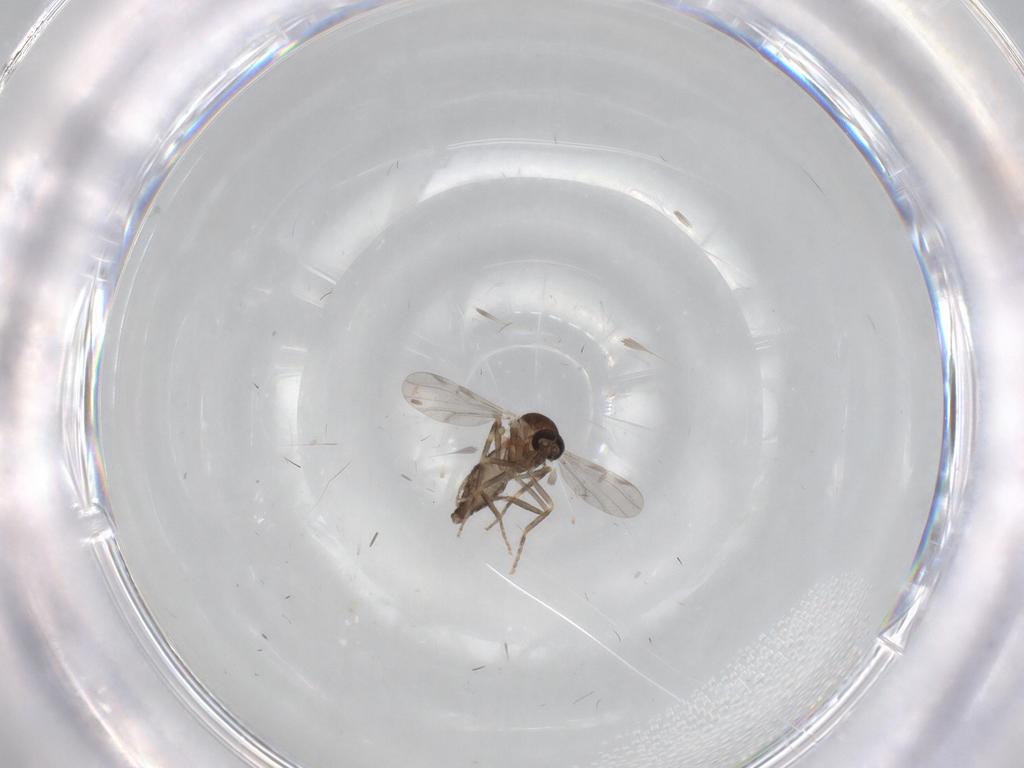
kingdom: Animalia
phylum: Arthropoda
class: Insecta
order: Diptera
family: Ceratopogonidae
